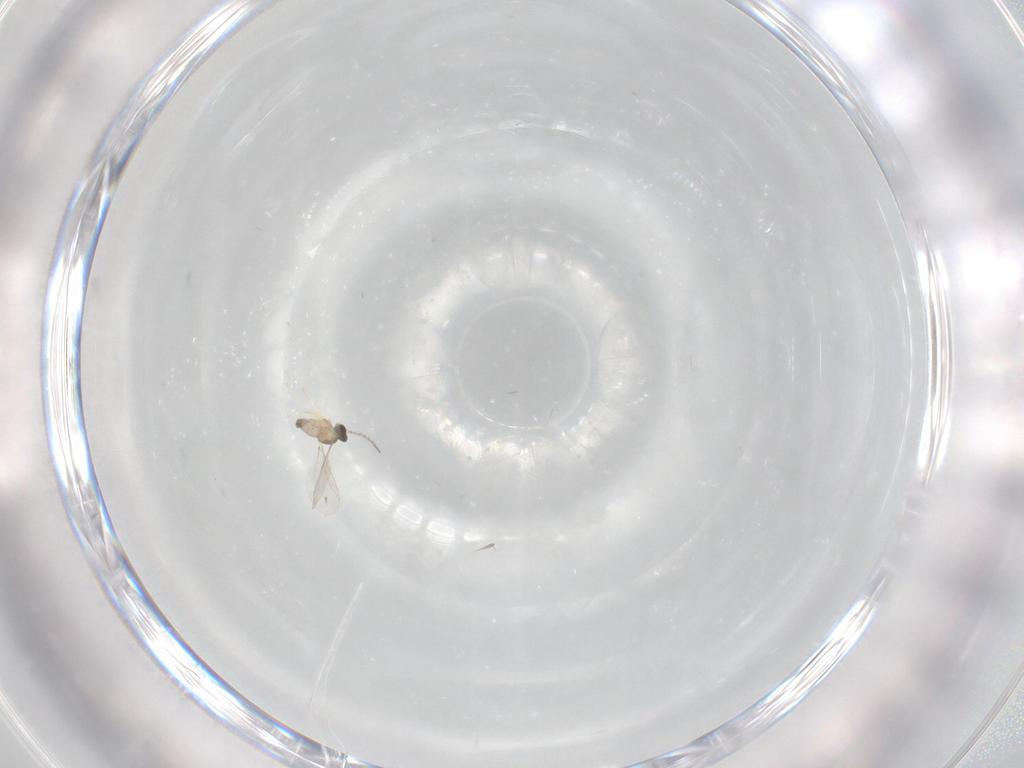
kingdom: Animalia
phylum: Arthropoda
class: Insecta
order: Diptera
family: Cecidomyiidae
